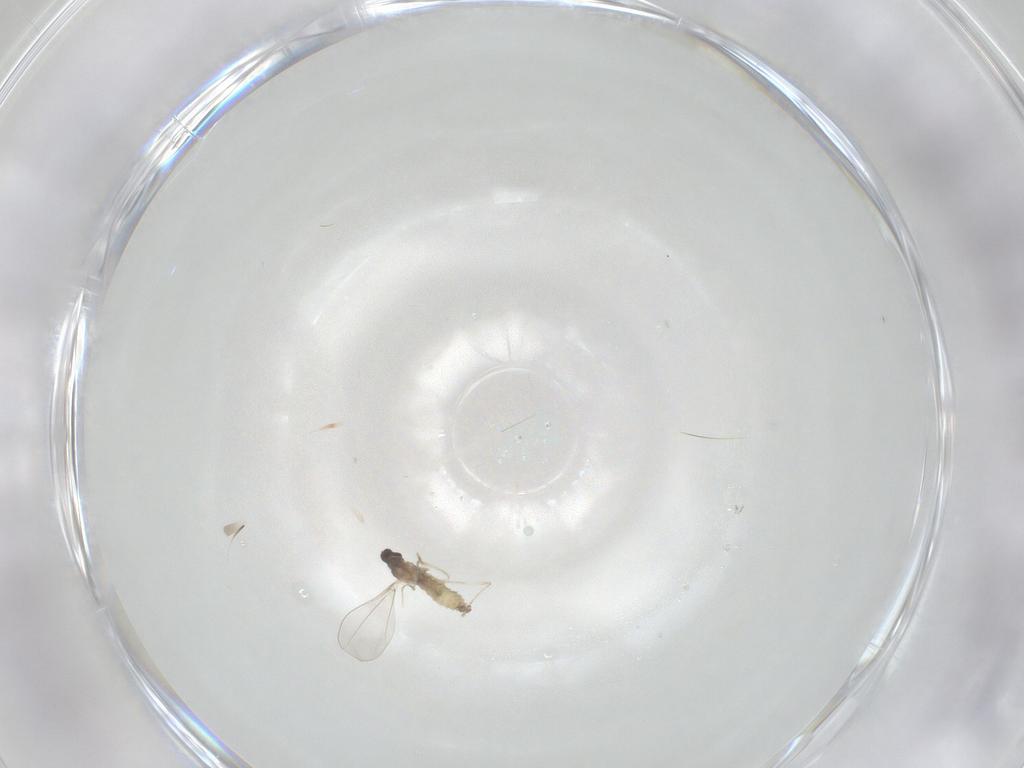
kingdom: Animalia
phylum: Arthropoda
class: Insecta
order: Diptera
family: Cecidomyiidae
